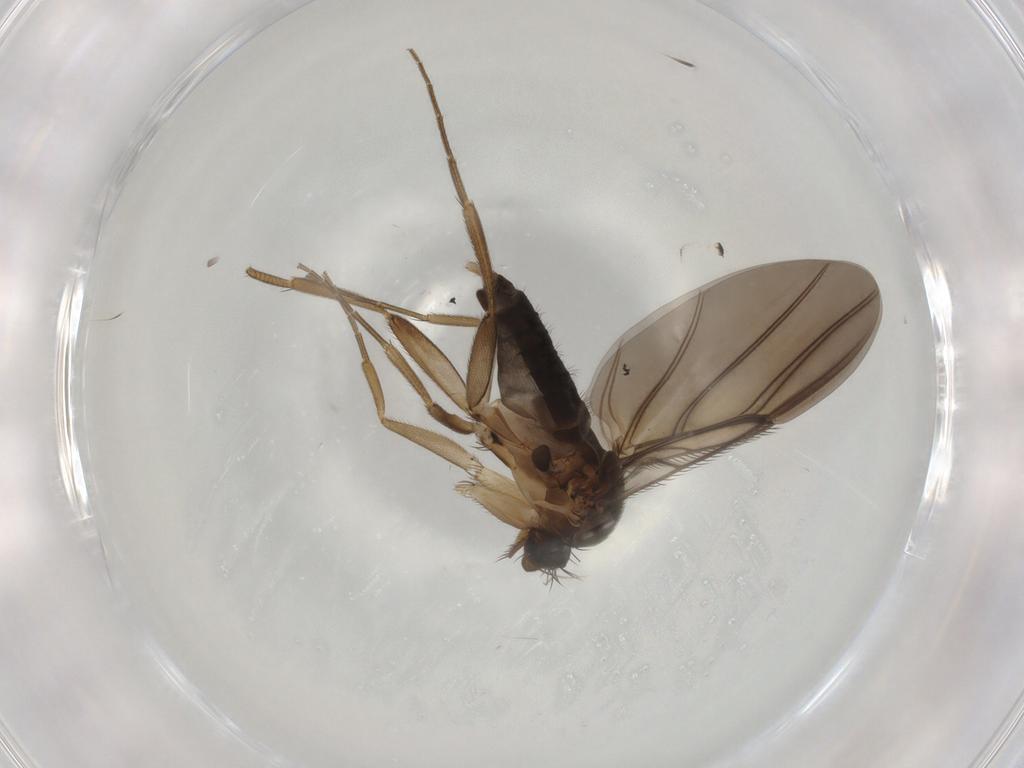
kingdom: Animalia
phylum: Arthropoda
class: Insecta
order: Diptera
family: Phoridae
